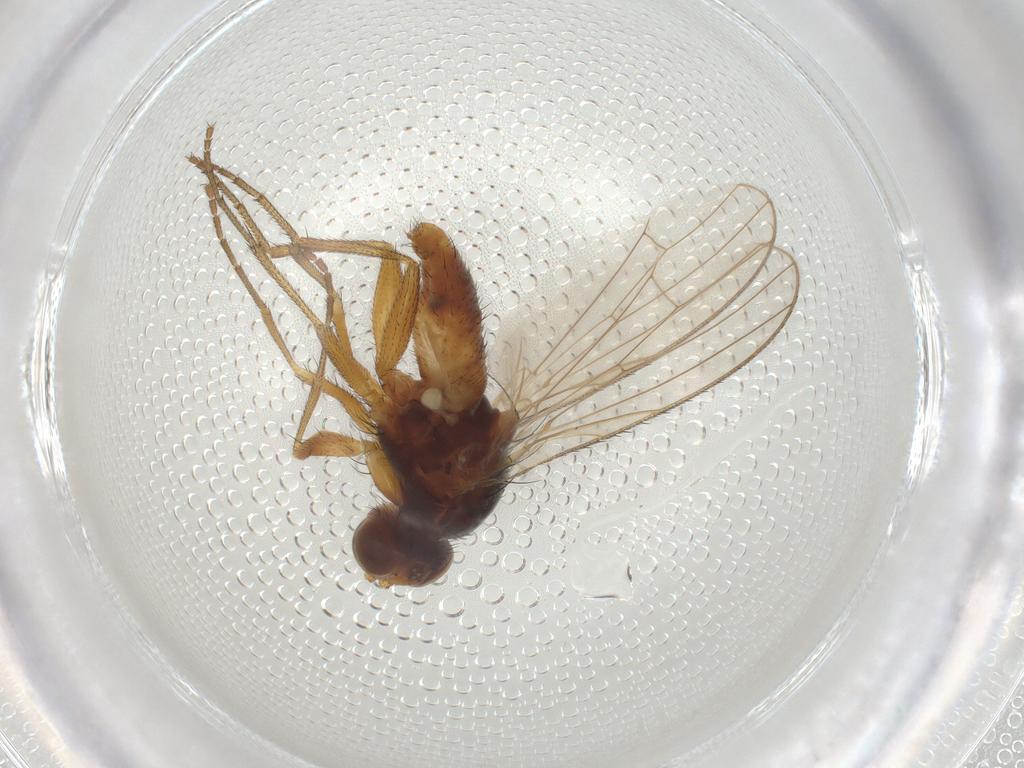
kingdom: Animalia
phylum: Arthropoda
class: Insecta
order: Diptera
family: Heleomyzidae
